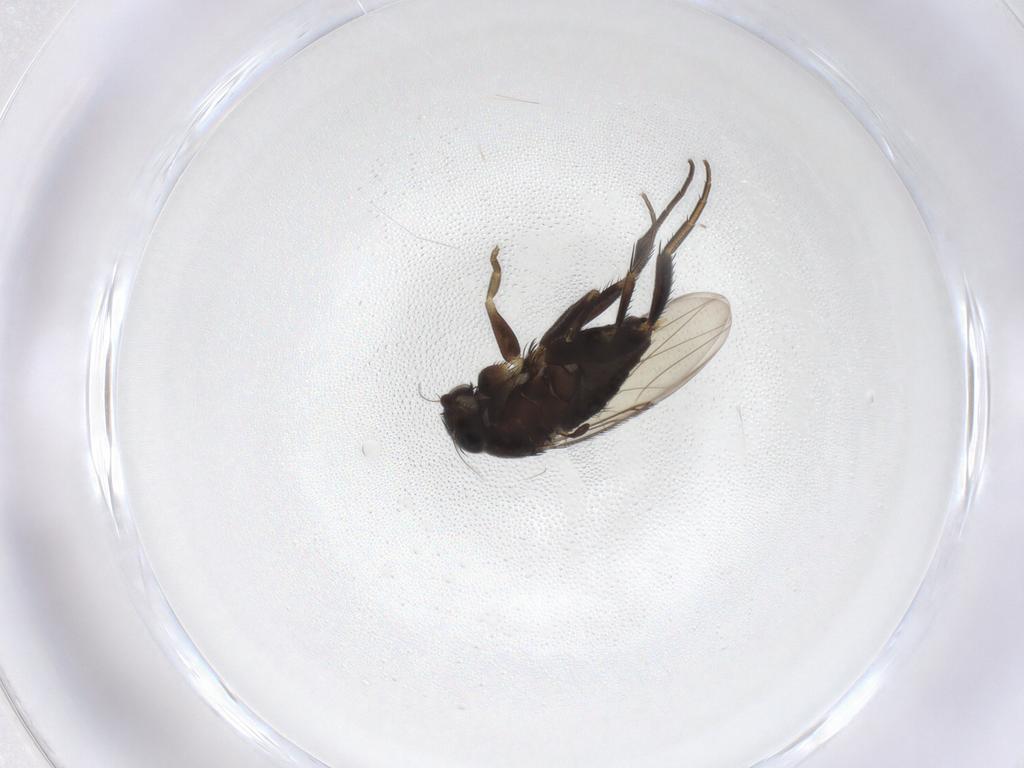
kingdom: Animalia
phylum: Arthropoda
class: Insecta
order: Diptera
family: Phoridae
